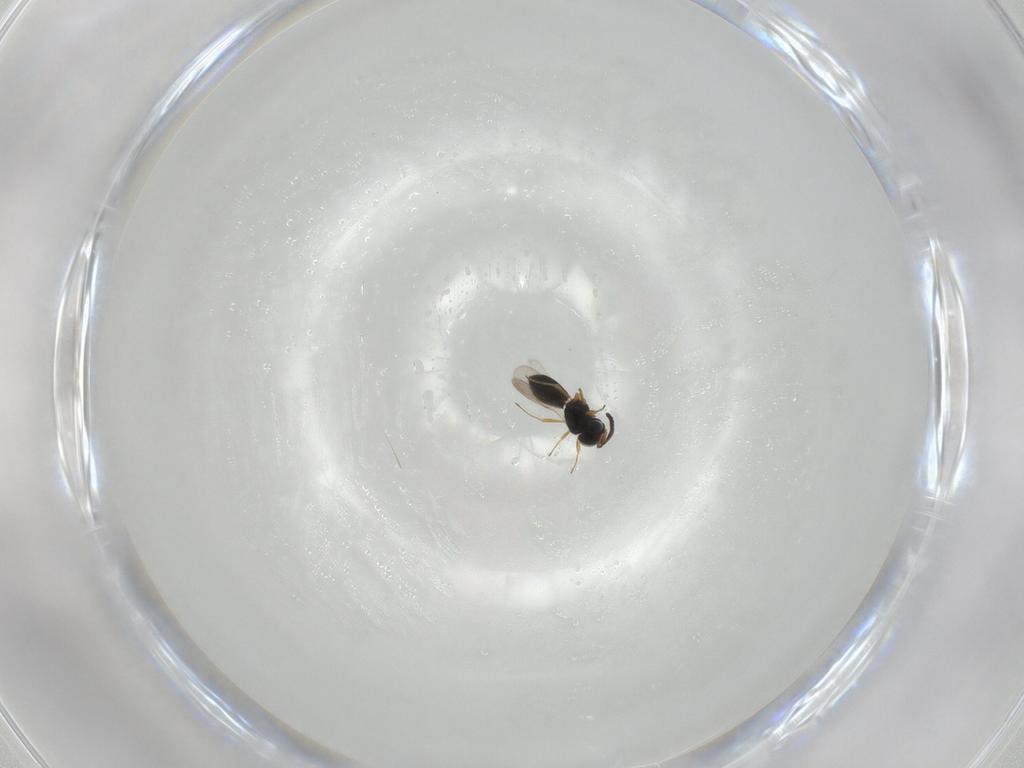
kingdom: Animalia
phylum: Arthropoda
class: Insecta
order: Hymenoptera
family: Scelionidae
